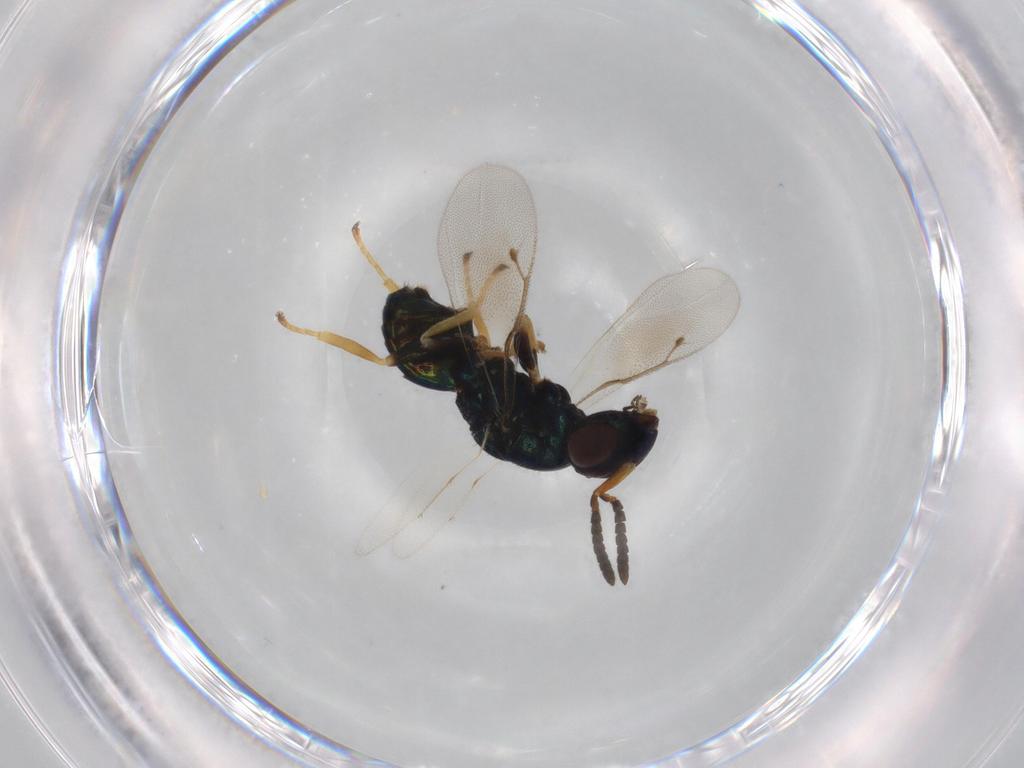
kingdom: Animalia
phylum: Arthropoda
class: Insecta
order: Hymenoptera
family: Pteromalidae
